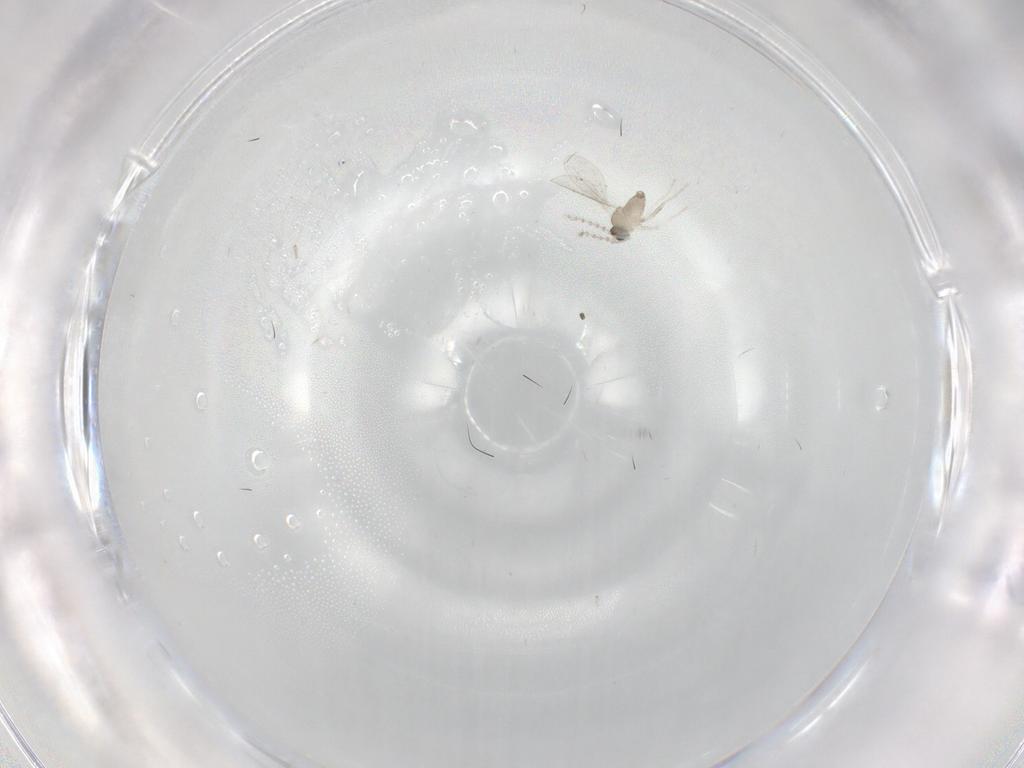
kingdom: Animalia
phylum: Arthropoda
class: Insecta
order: Diptera
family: Cecidomyiidae
